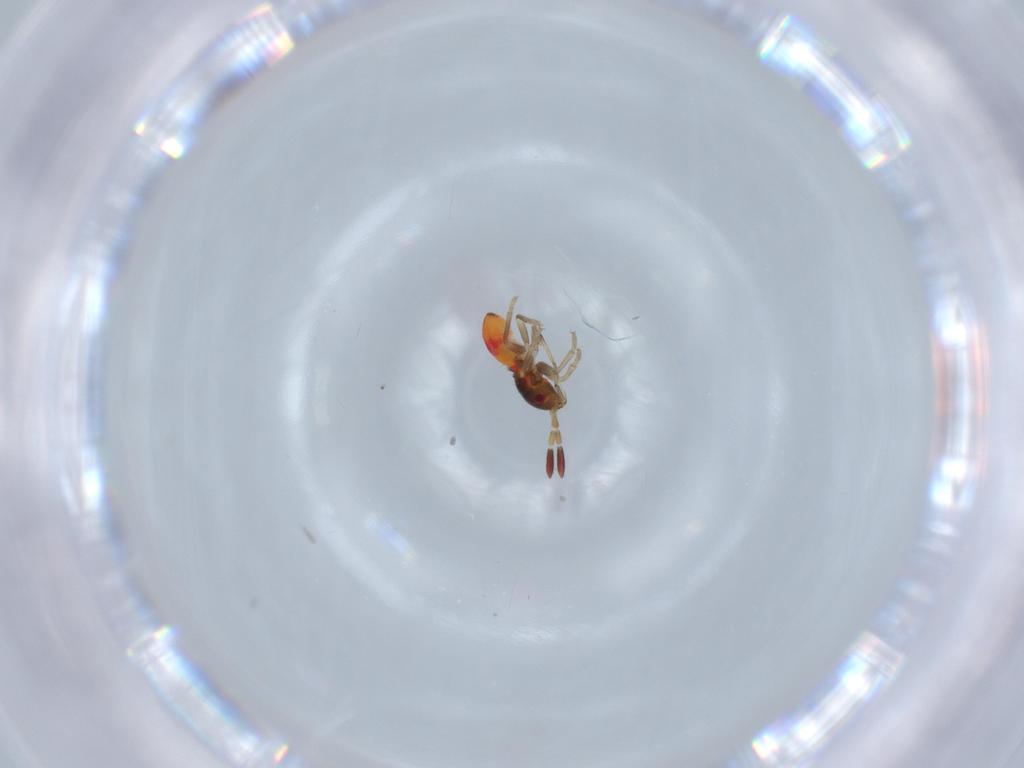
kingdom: Animalia
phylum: Arthropoda
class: Insecta
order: Hemiptera
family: Rhyparochromidae
